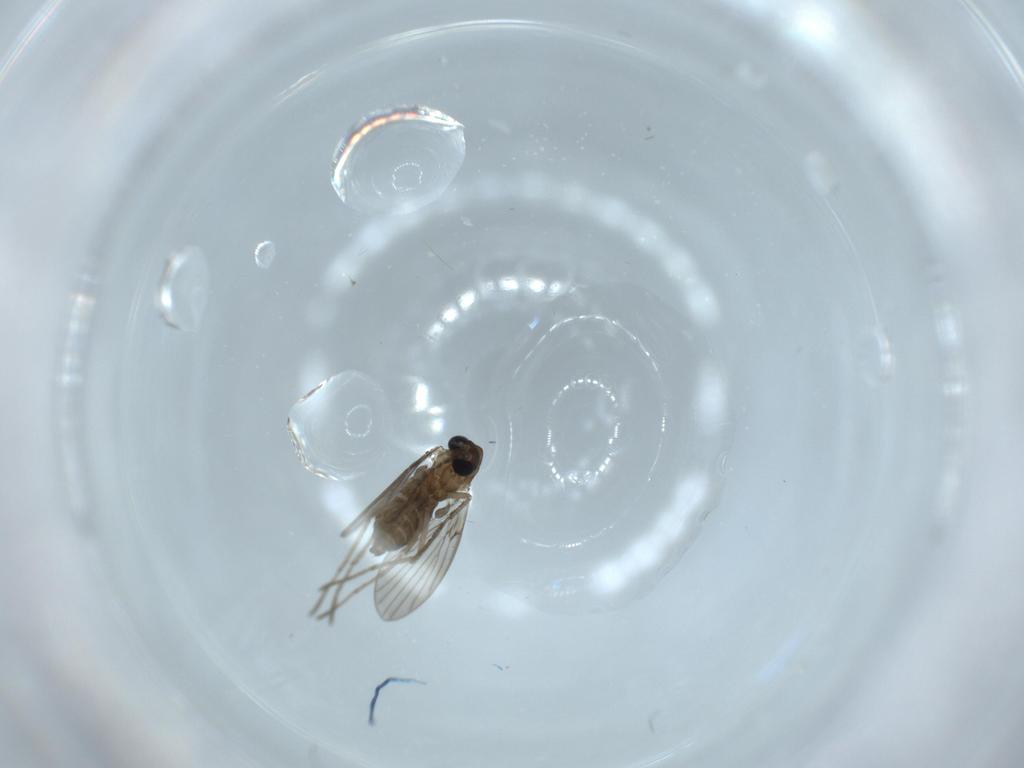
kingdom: Animalia
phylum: Arthropoda
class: Insecta
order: Diptera
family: Psychodidae
